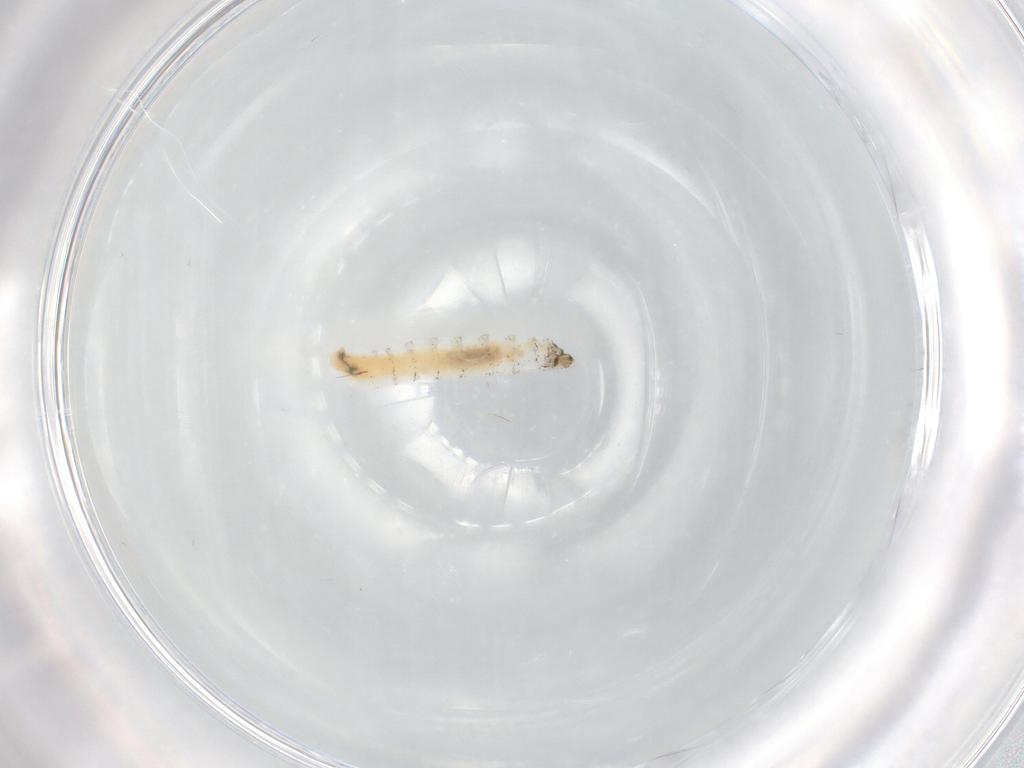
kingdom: Animalia
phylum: Arthropoda
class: Insecta
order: Diptera
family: Drosophilidae
